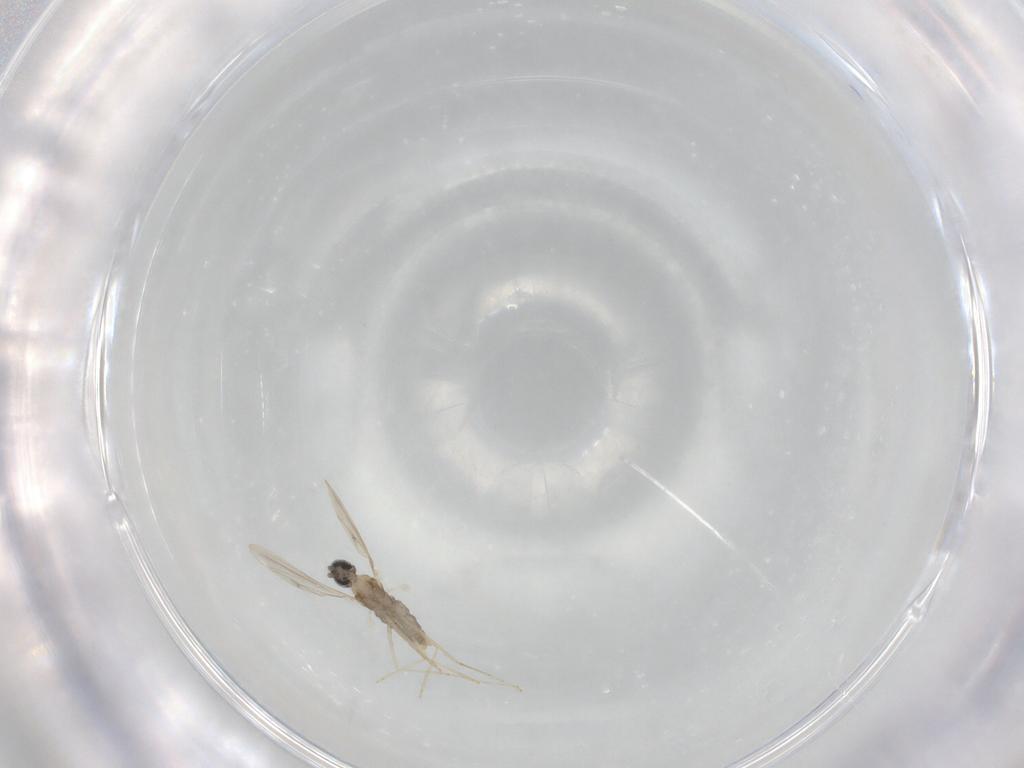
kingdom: Animalia
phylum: Arthropoda
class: Insecta
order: Diptera
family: Cecidomyiidae
